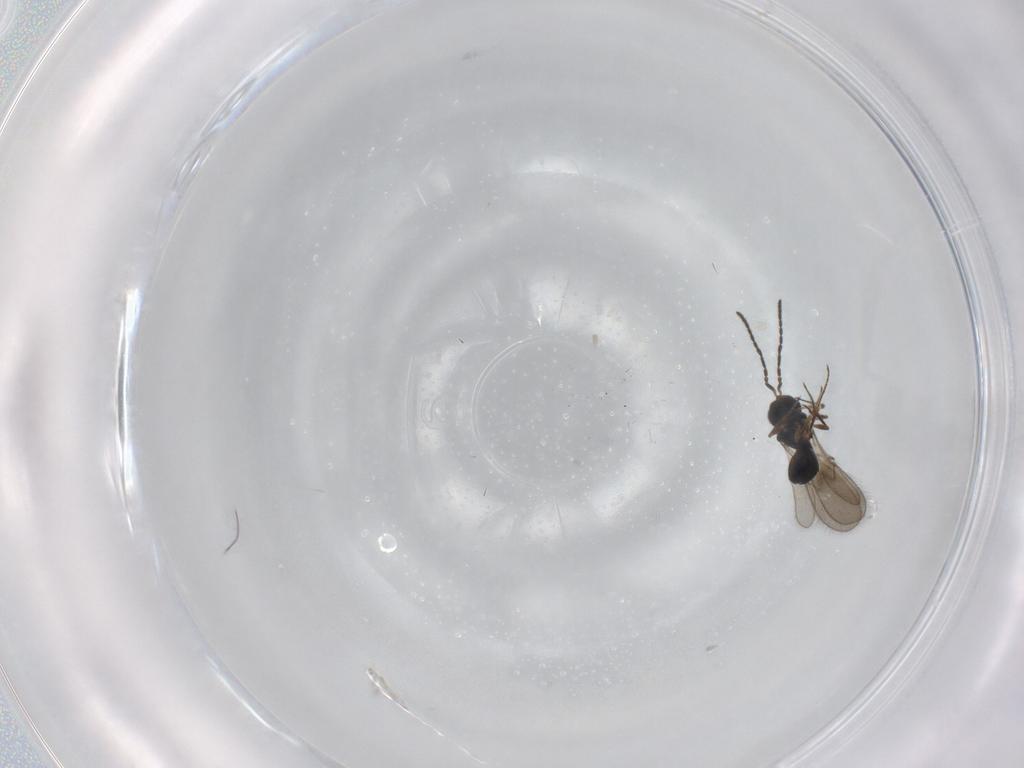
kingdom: Animalia
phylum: Arthropoda
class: Insecta
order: Hymenoptera
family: Scelionidae
